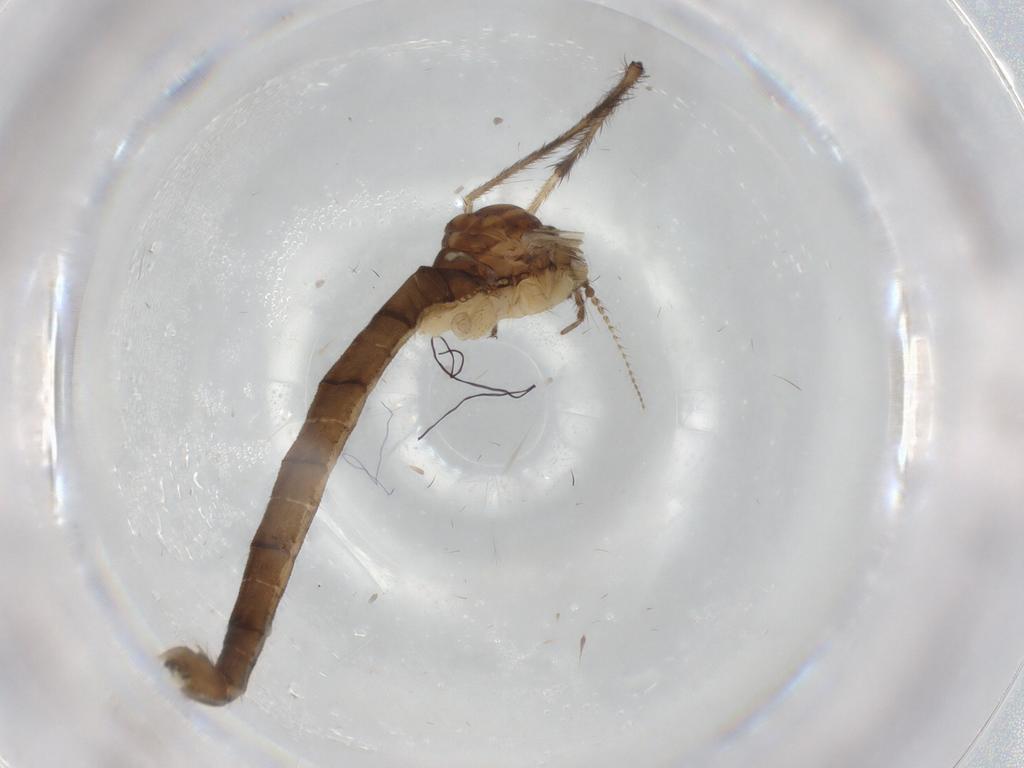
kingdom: Animalia
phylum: Arthropoda
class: Insecta
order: Diptera
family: Limoniidae
